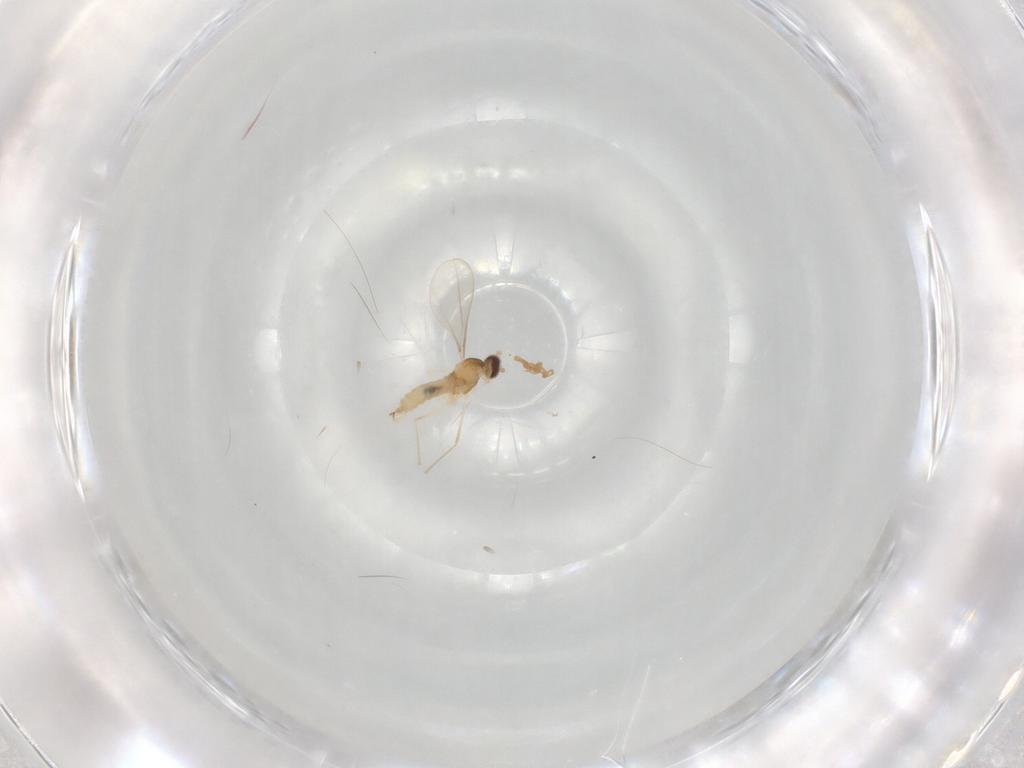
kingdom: Animalia
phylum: Arthropoda
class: Insecta
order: Diptera
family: Cecidomyiidae
